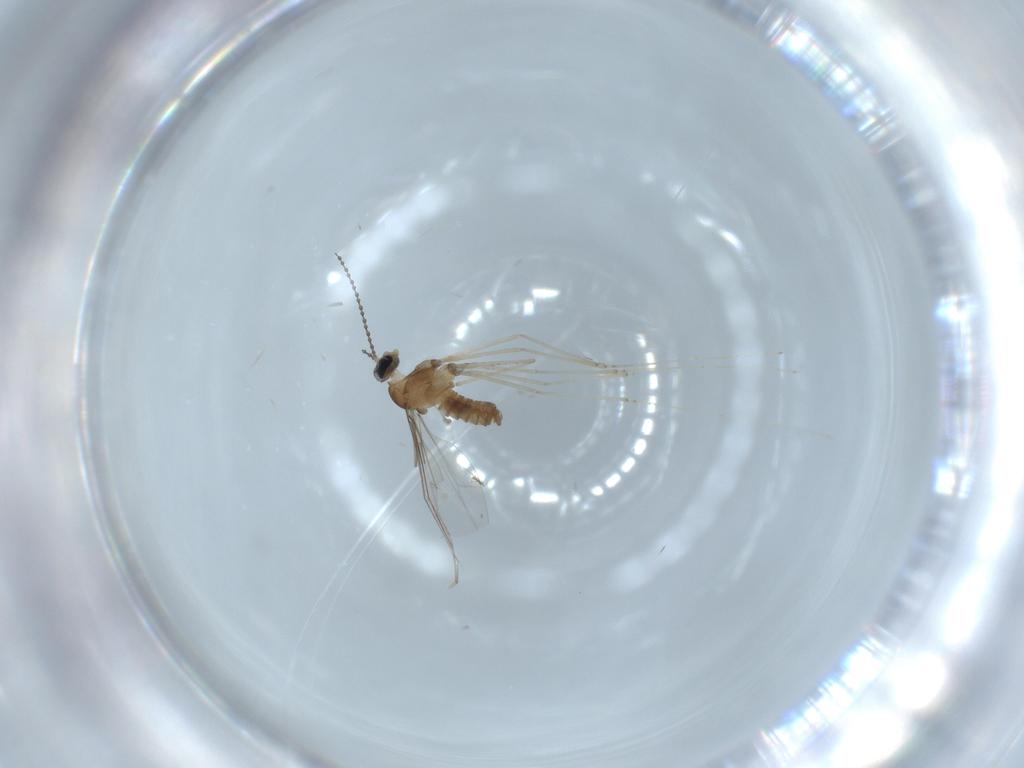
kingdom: Animalia
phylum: Arthropoda
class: Insecta
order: Diptera
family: Cecidomyiidae
